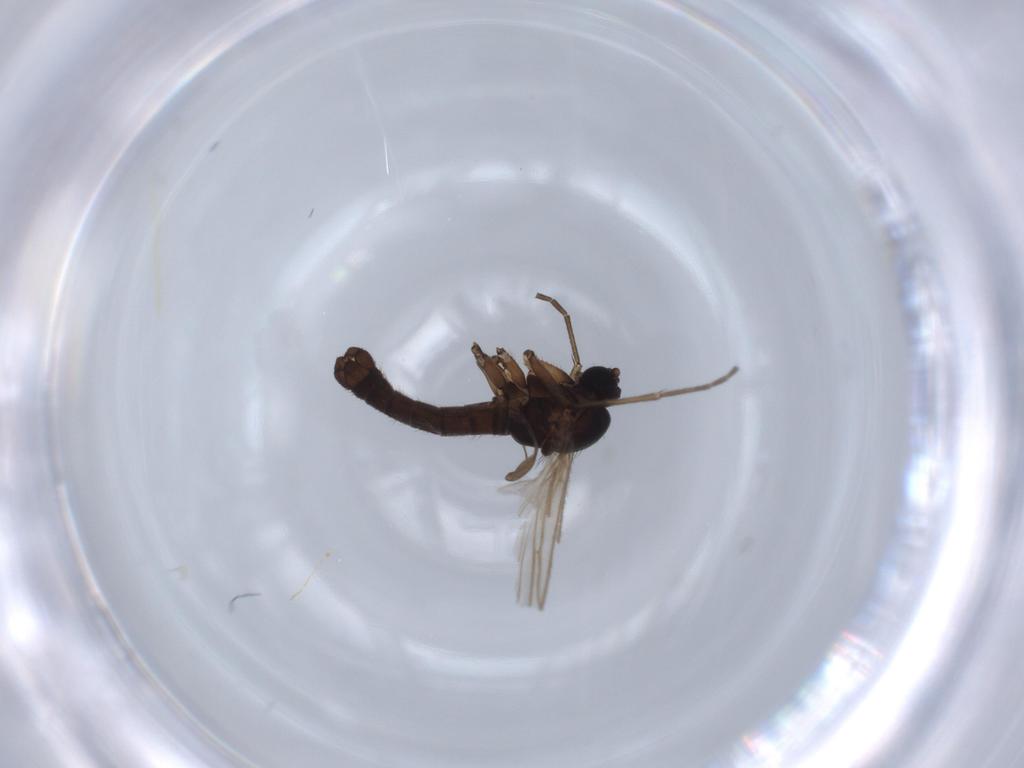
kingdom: Animalia
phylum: Arthropoda
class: Insecta
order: Diptera
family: Sciaridae
